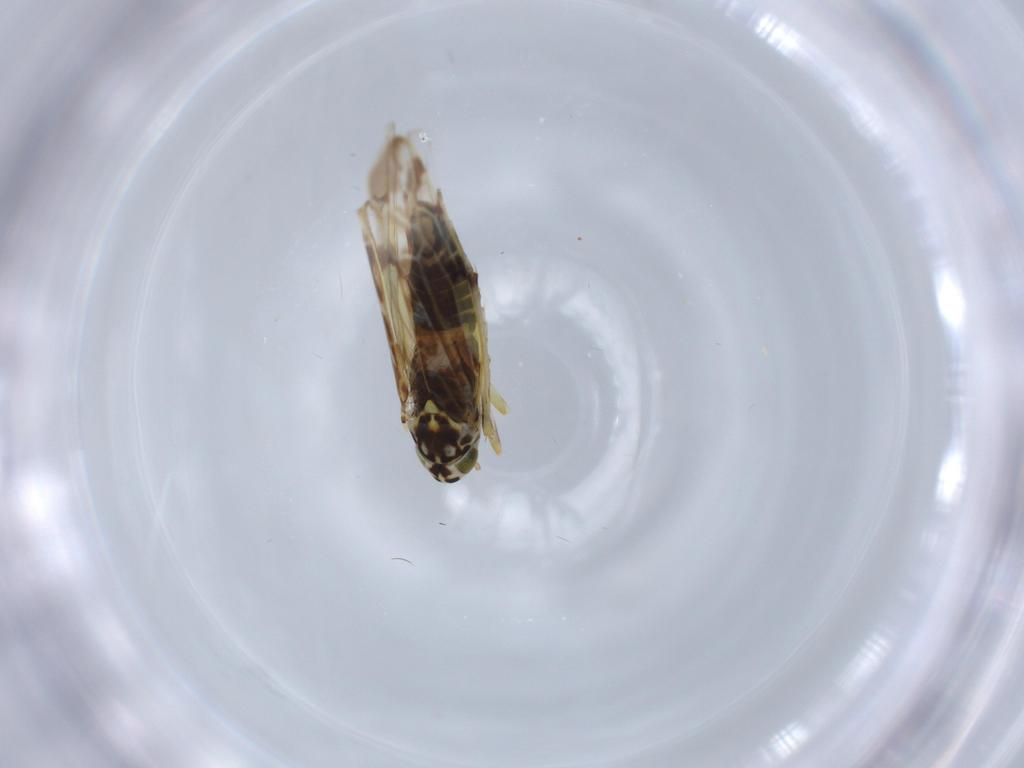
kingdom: Animalia
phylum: Arthropoda
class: Insecta
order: Hemiptera
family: Cicadellidae
